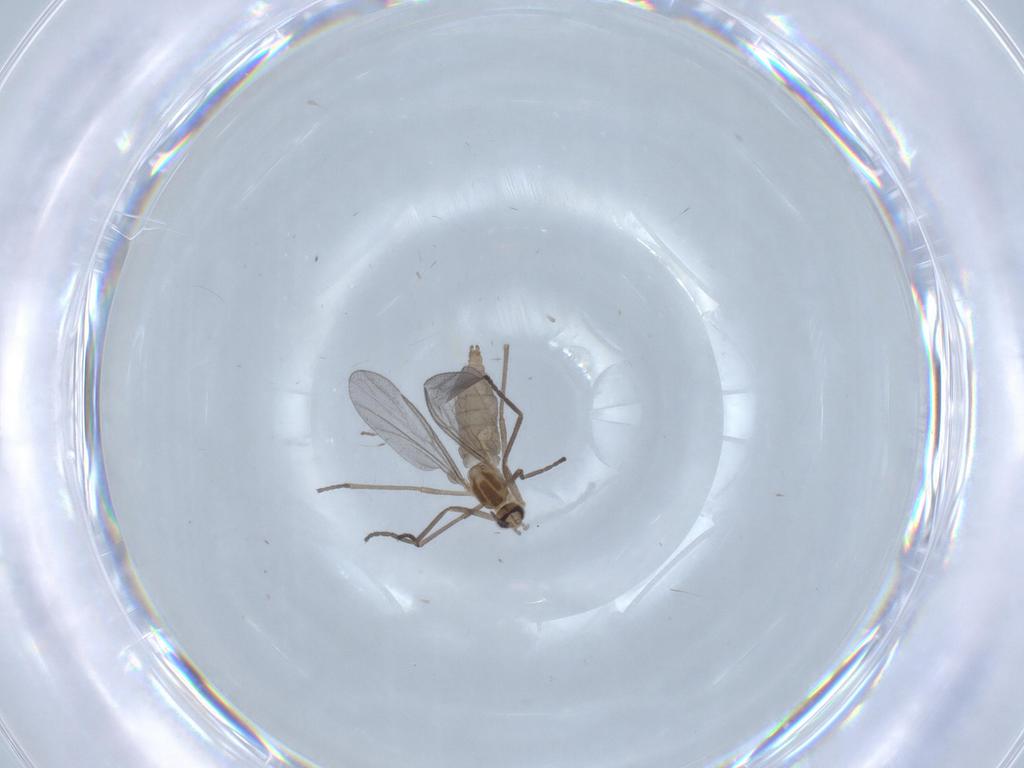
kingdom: Animalia
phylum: Arthropoda
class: Insecta
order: Diptera
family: Cecidomyiidae
